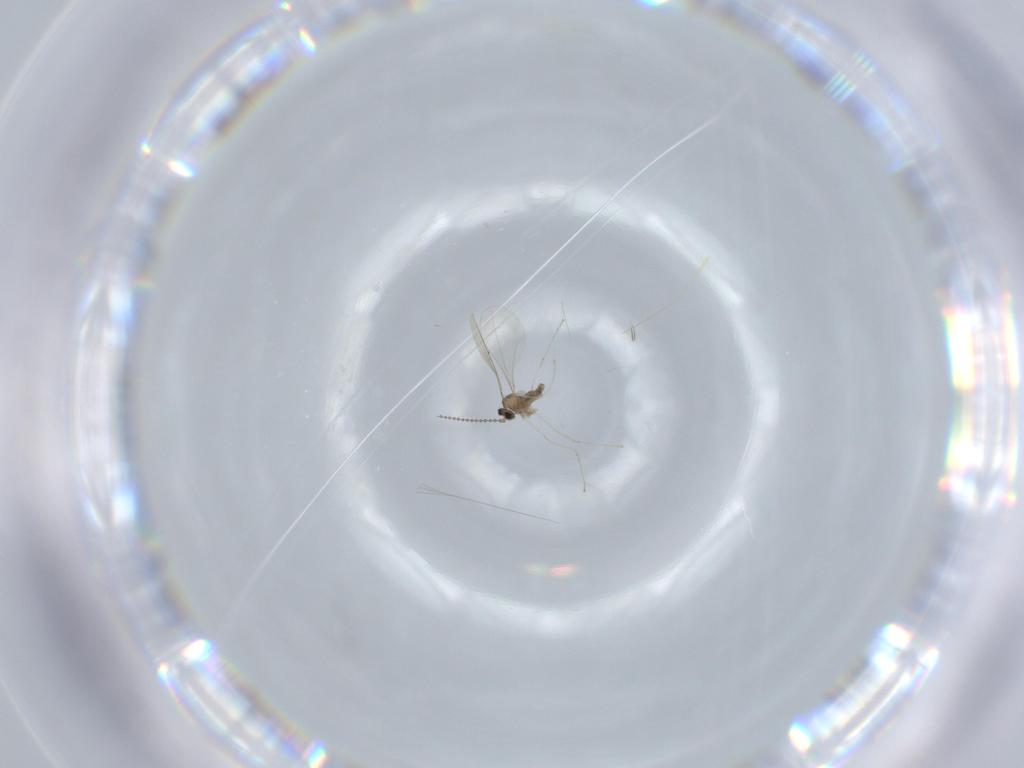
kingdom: Animalia
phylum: Arthropoda
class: Insecta
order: Diptera
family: Cecidomyiidae
